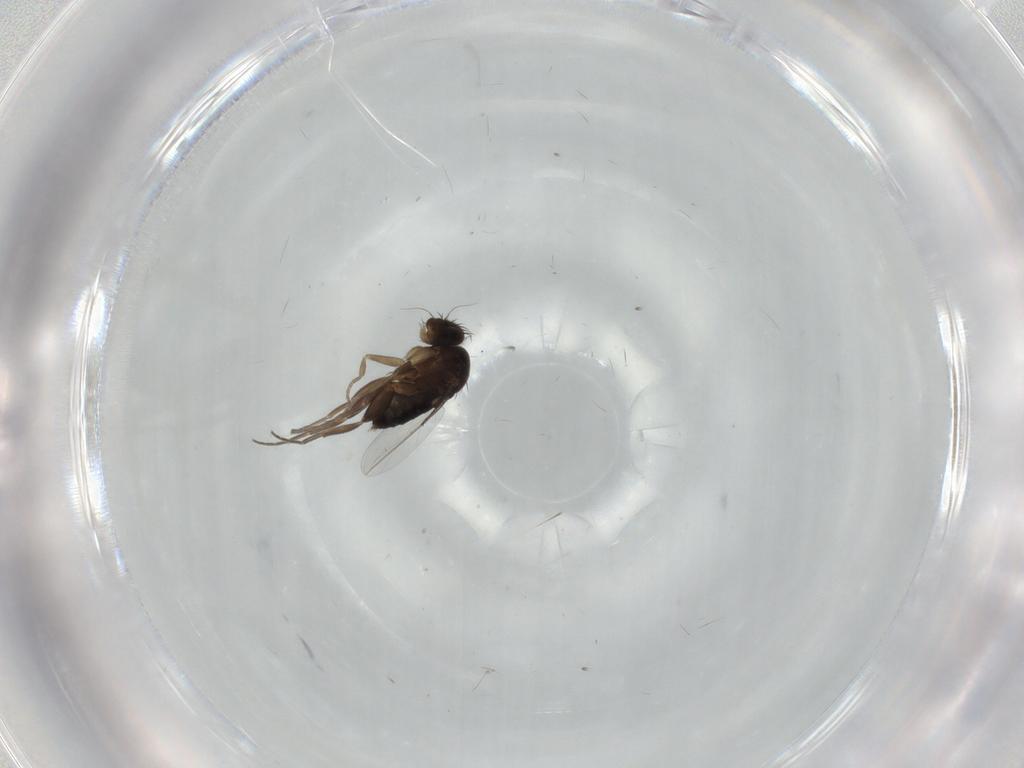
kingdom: Animalia
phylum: Arthropoda
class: Insecta
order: Diptera
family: Phoridae
